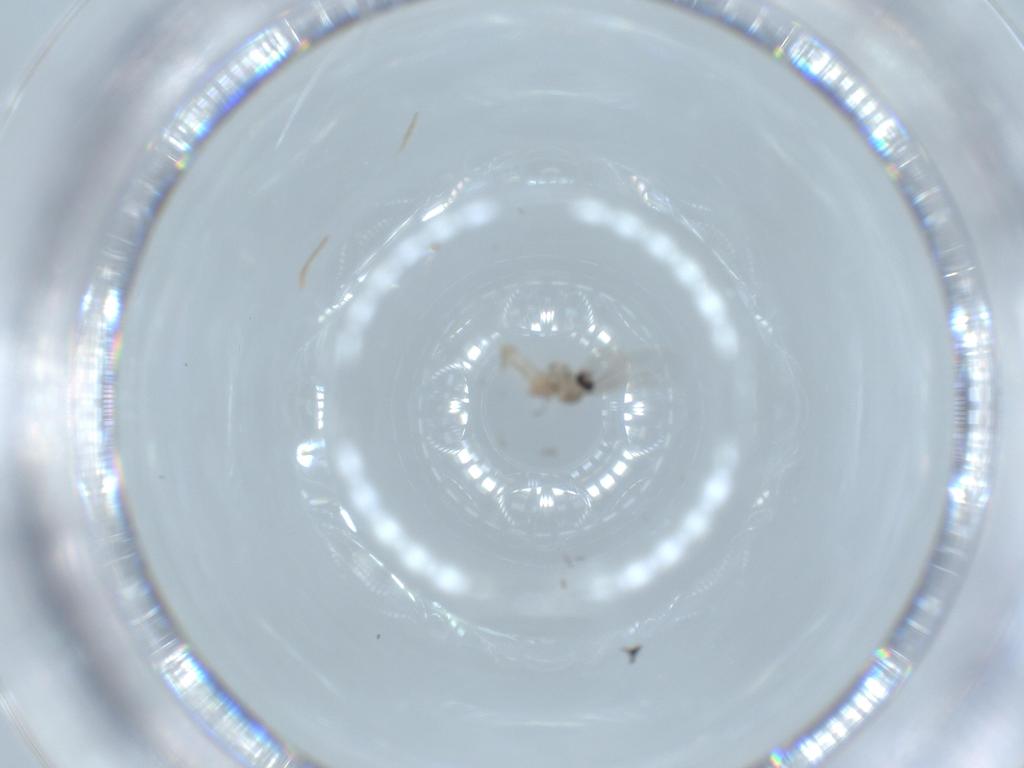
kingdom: Animalia
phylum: Arthropoda
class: Insecta
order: Diptera
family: Cecidomyiidae
